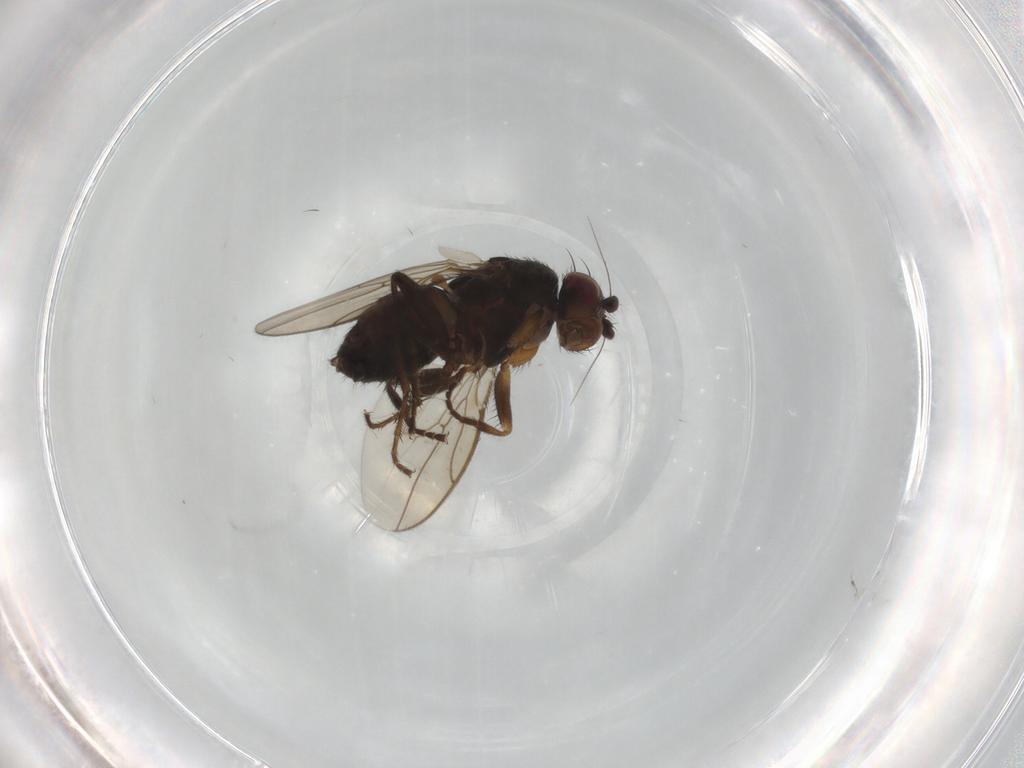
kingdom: Animalia
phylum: Arthropoda
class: Insecta
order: Diptera
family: Sphaeroceridae
